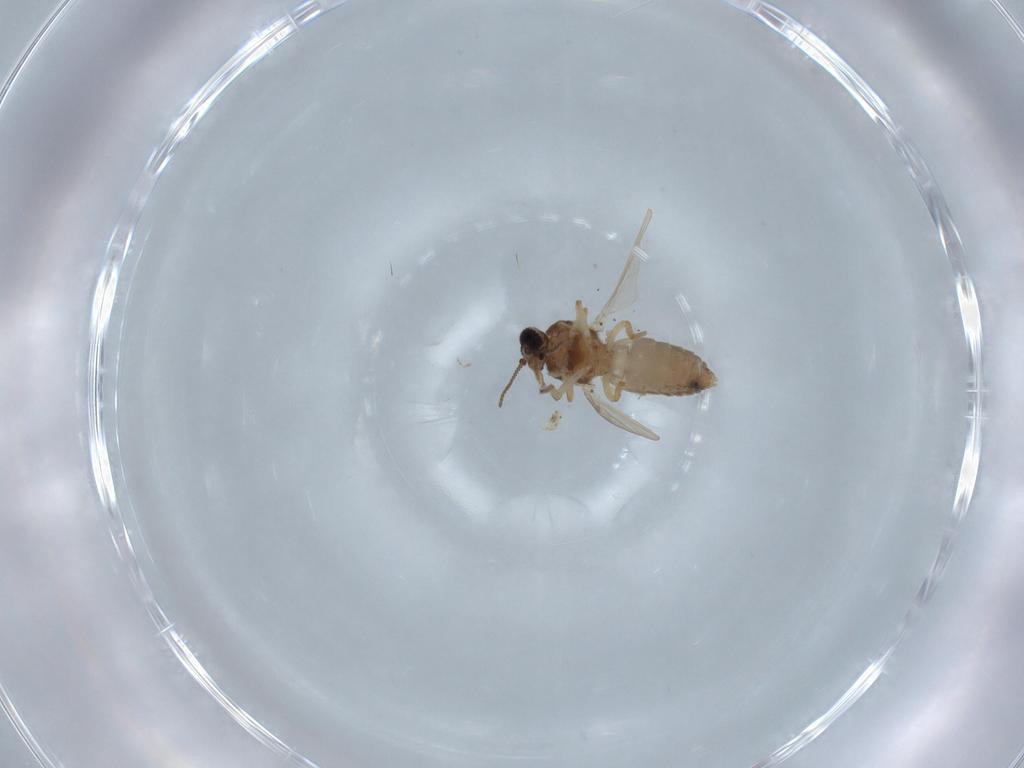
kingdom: Animalia
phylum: Arthropoda
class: Insecta
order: Diptera
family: Ceratopogonidae
